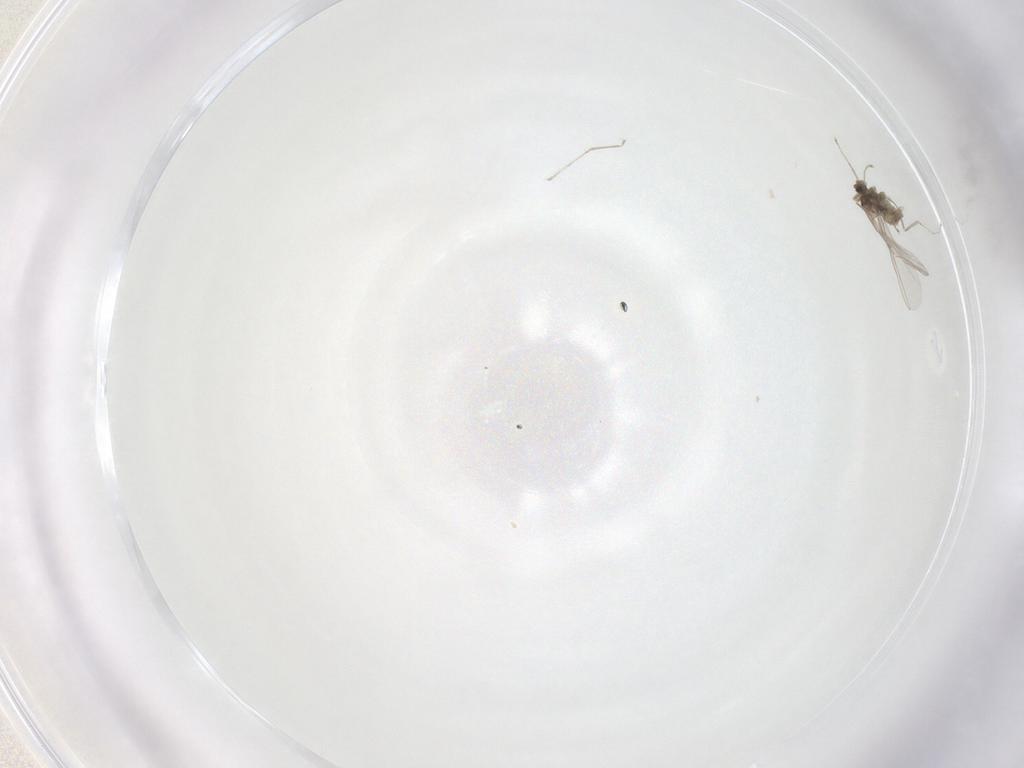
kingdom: Animalia
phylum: Arthropoda
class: Insecta
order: Diptera
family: Cecidomyiidae
